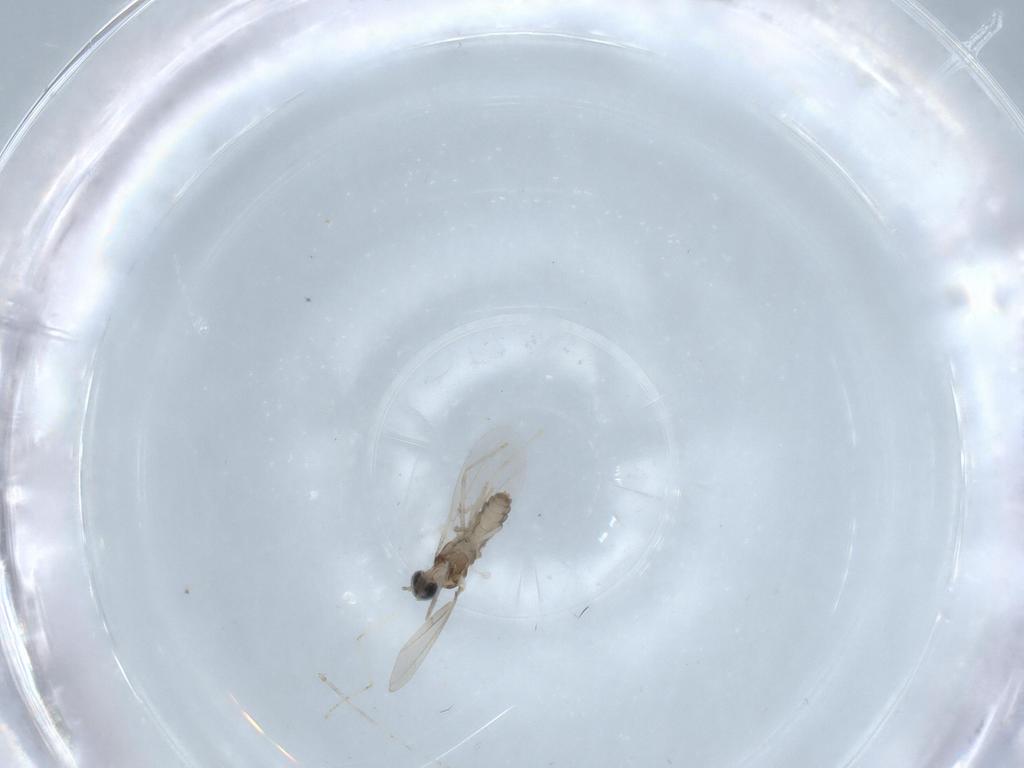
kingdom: Animalia
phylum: Arthropoda
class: Insecta
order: Diptera
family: Cecidomyiidae
